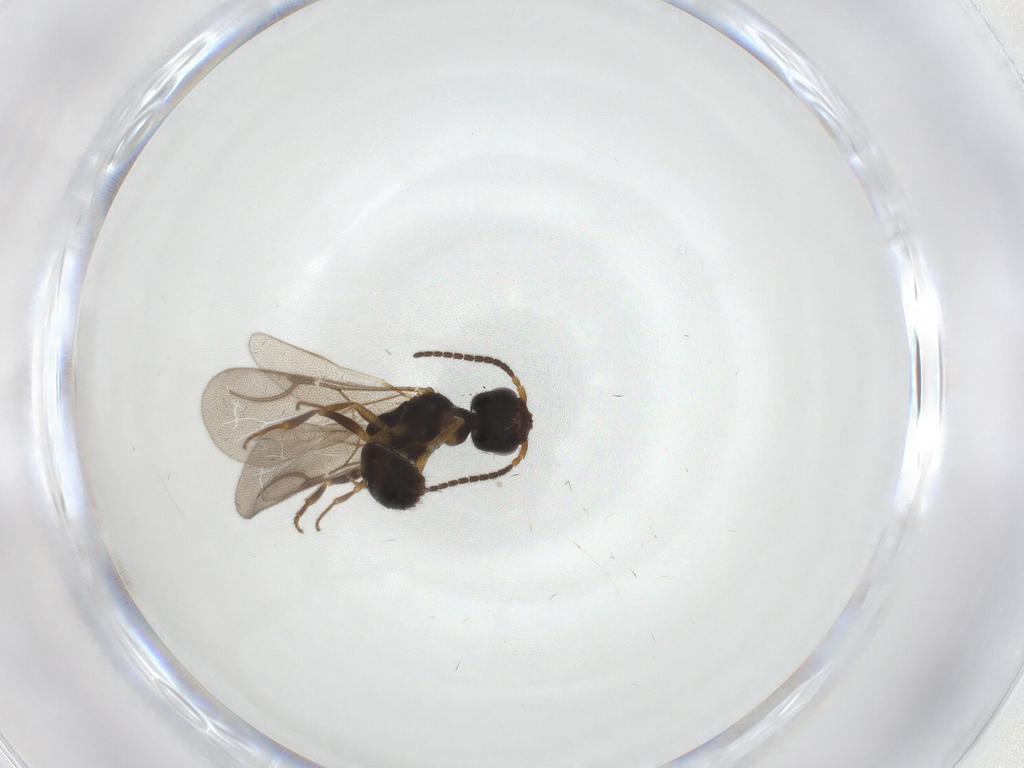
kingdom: Animalia
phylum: Arthropoda
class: Insecta
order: Hymenoptera
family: Bethylidae
